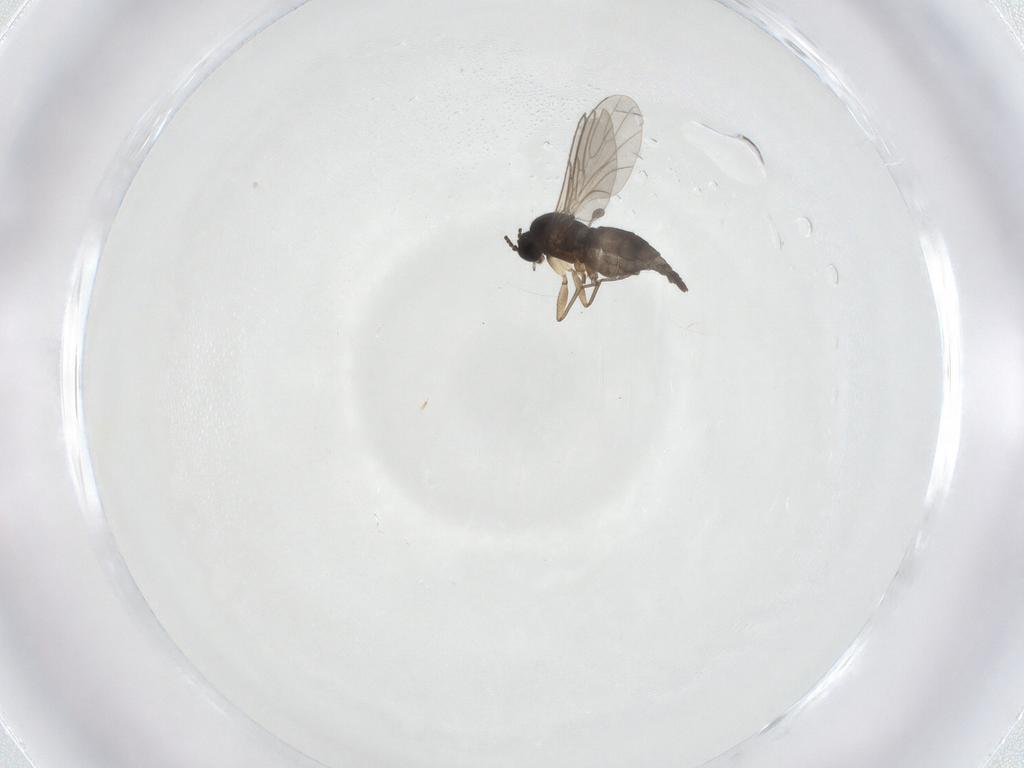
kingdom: Animalia
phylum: Arthropoda
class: Insecta
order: Diptera
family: Sciaridae
